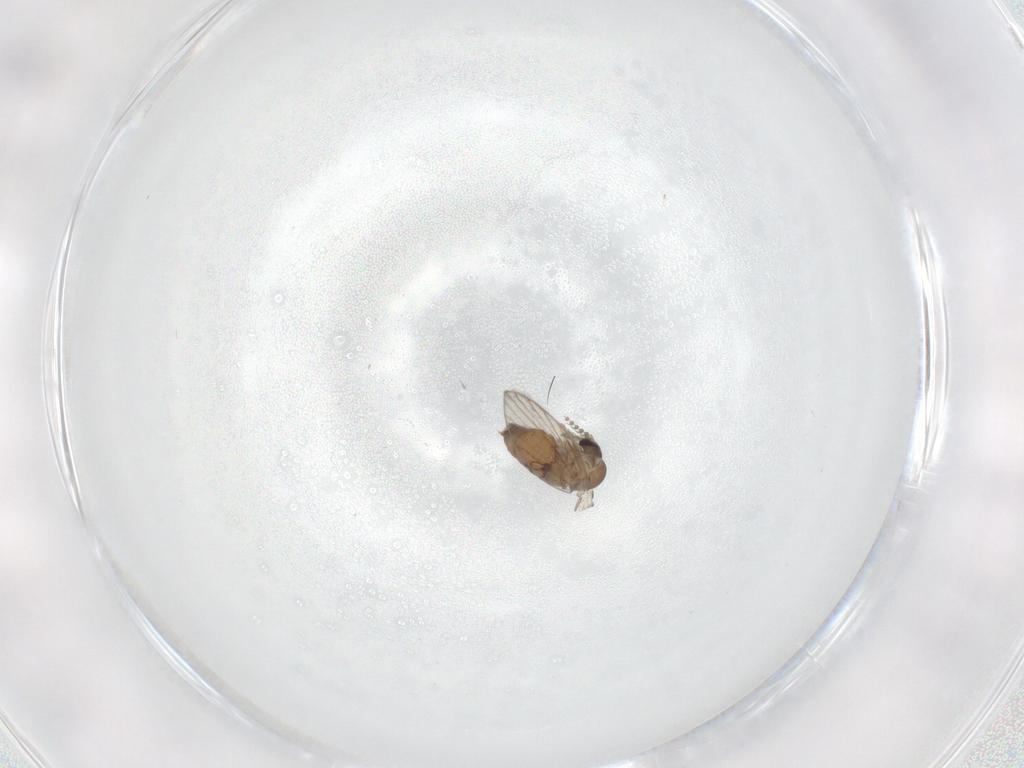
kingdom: Animalia
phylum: Arthropoda
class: Insecta
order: Diptera
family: Psychodidae
